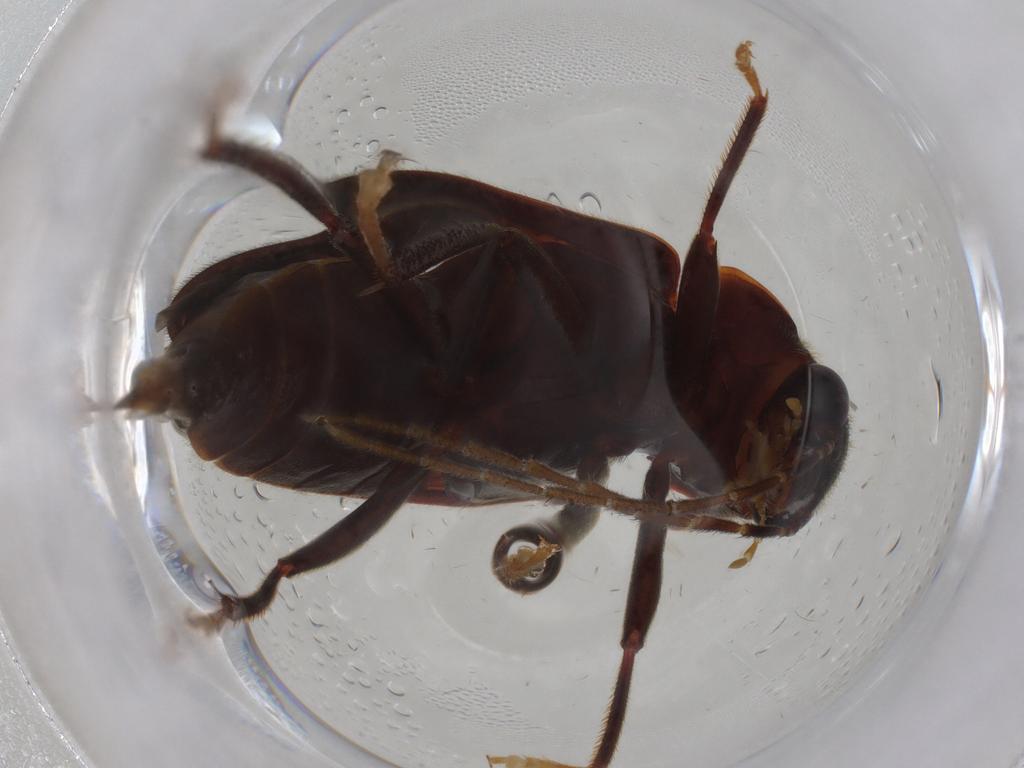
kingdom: Animalia
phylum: Arthropoda
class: Insecta
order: Coleoptera
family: Ptilodactylidae
